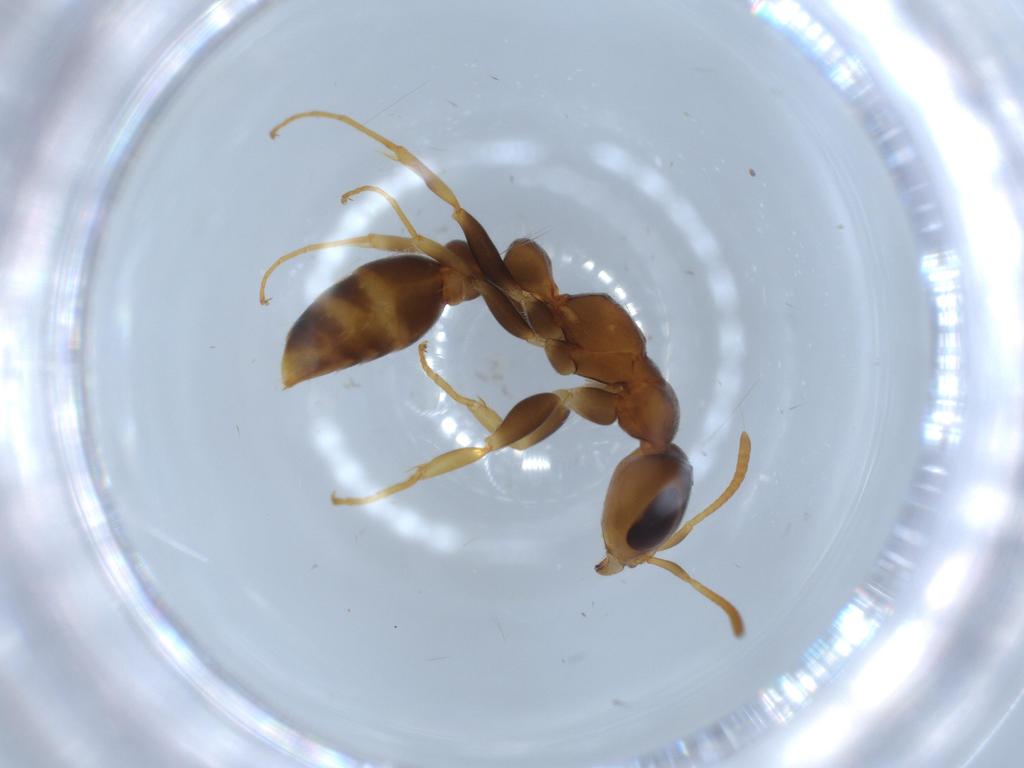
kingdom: Animalia
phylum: Arthropoda
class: Insecta
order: Hymenoptera
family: Formicidae
